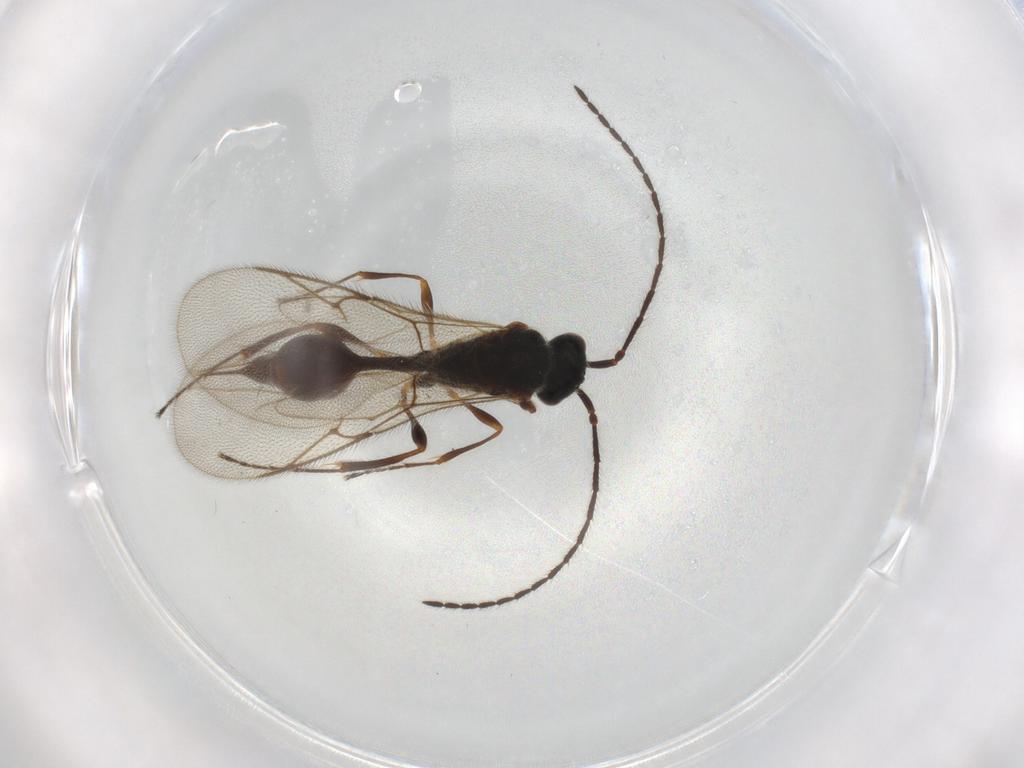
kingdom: Animalia
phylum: Arthropoda
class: Insecta
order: Hymenoptera
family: Diapriidae
